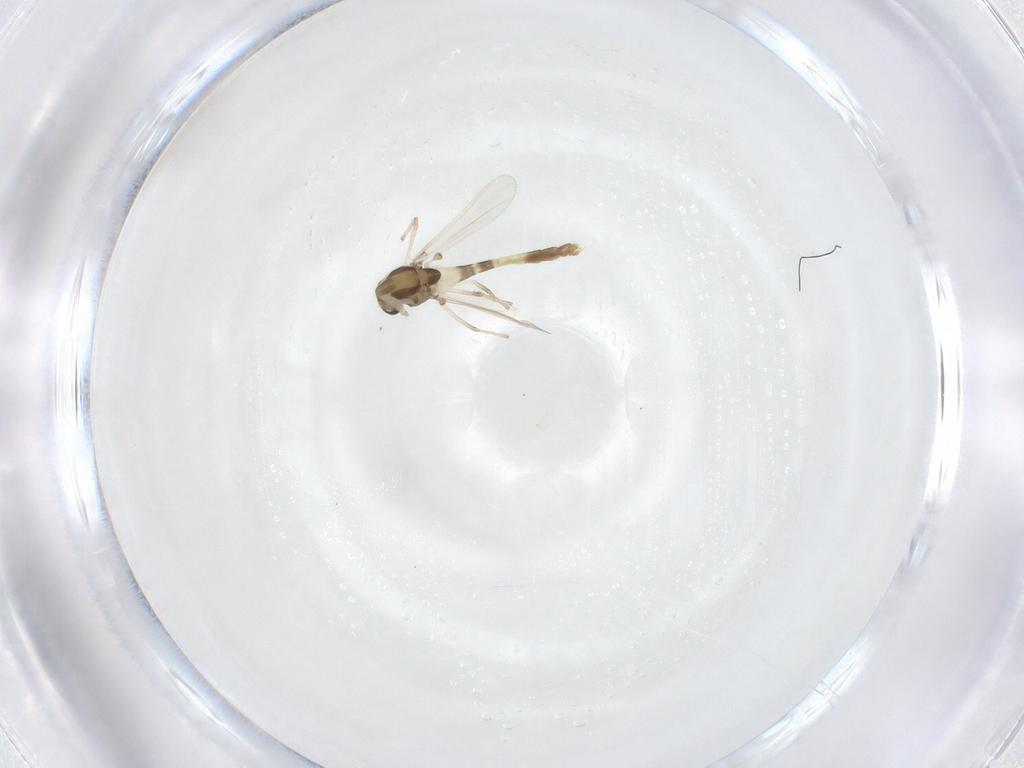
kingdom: Animalia
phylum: Arthropoda
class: Insecta
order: Diptera
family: Chironomidae
